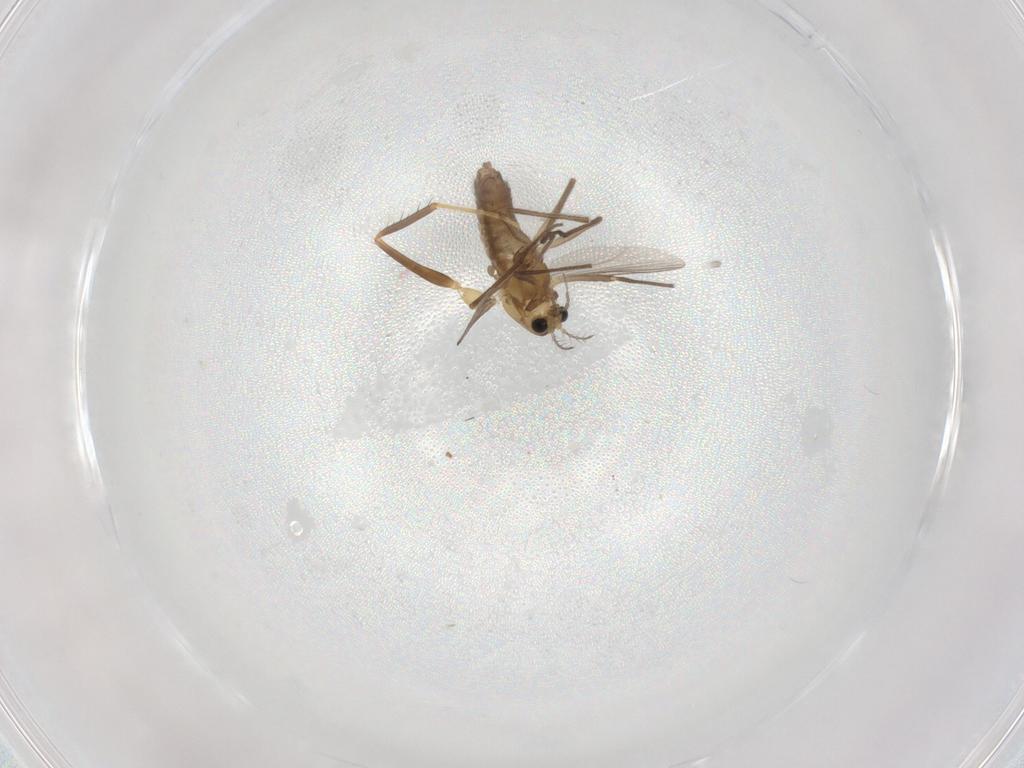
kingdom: Animalia
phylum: Arthropoda
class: Insecta
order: Diptera
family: Chironomidae
